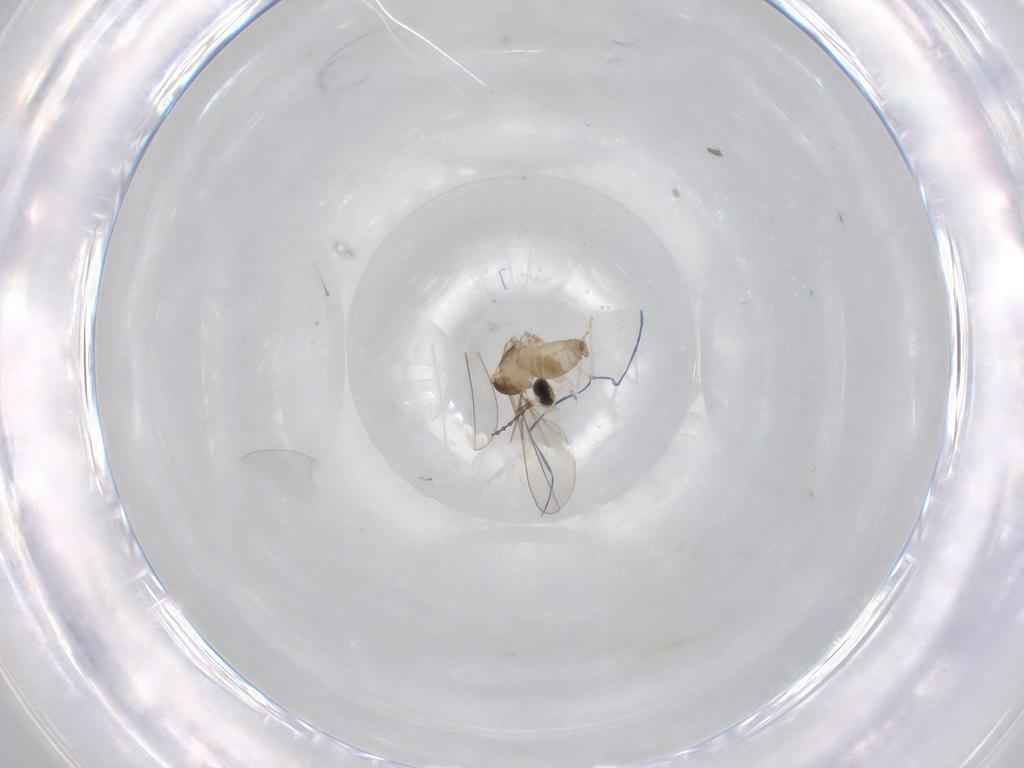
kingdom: Animalia
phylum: Arthropoda
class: Insecta
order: Diptera
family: Cecidomyiidae
